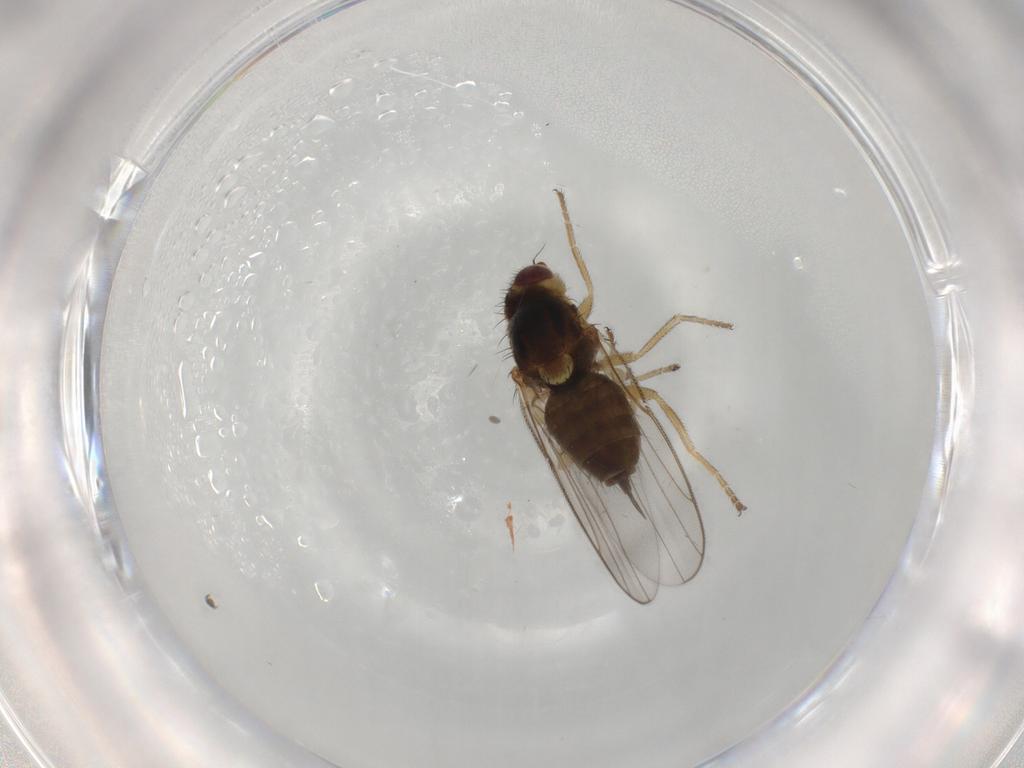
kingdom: Animalia
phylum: Arthropoda
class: Insecta
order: Diptera
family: Chloropidae
